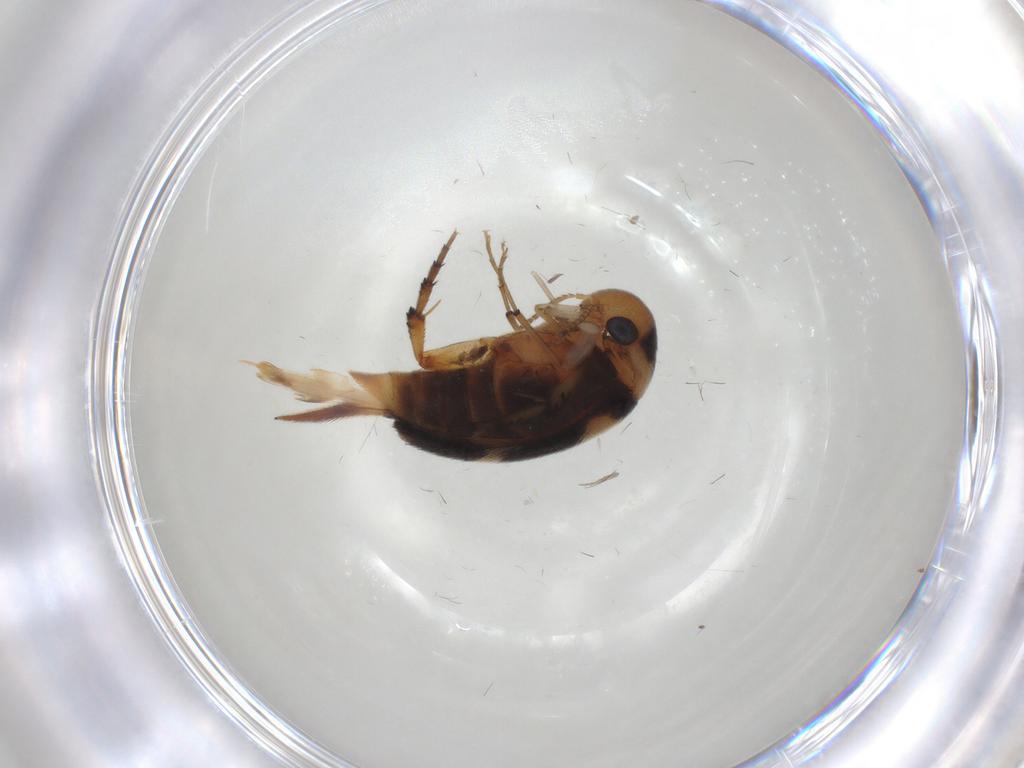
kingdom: Animalia
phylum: Arthropoda
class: Insecta
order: Coleoptera
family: Mordellidae
